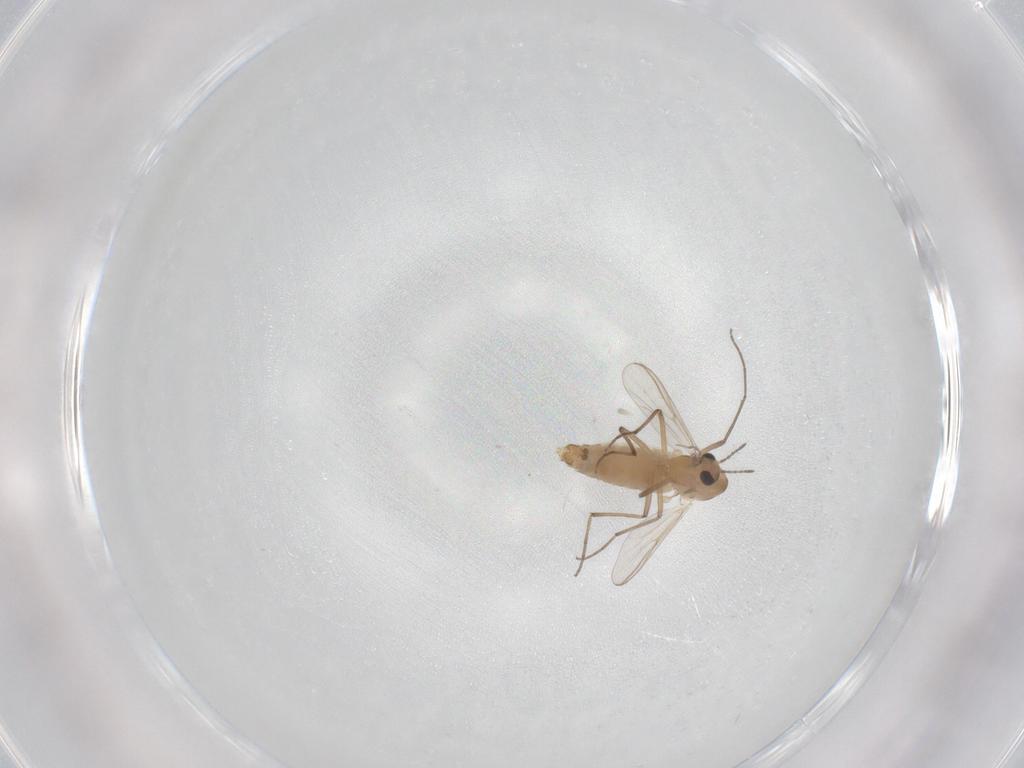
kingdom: Animalia
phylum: Arthropoda
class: Insecta
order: Diptera
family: Chironomidae
